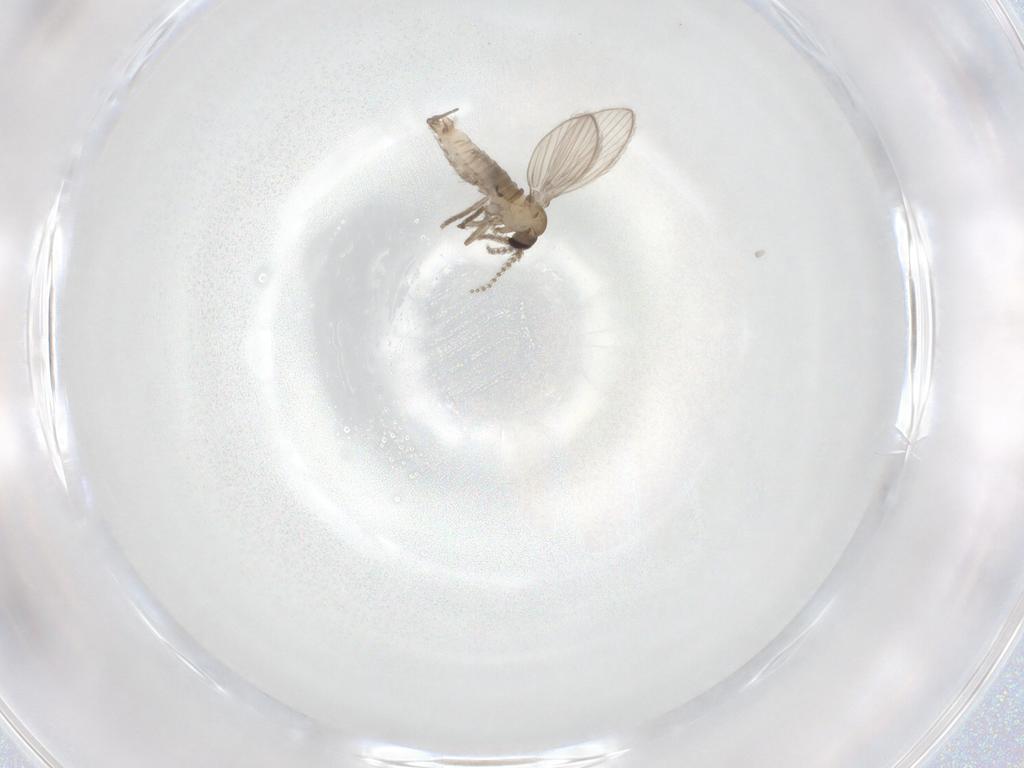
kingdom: Animalia
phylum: Arthropoda
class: Insecta
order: Diptera
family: Psychodidae
